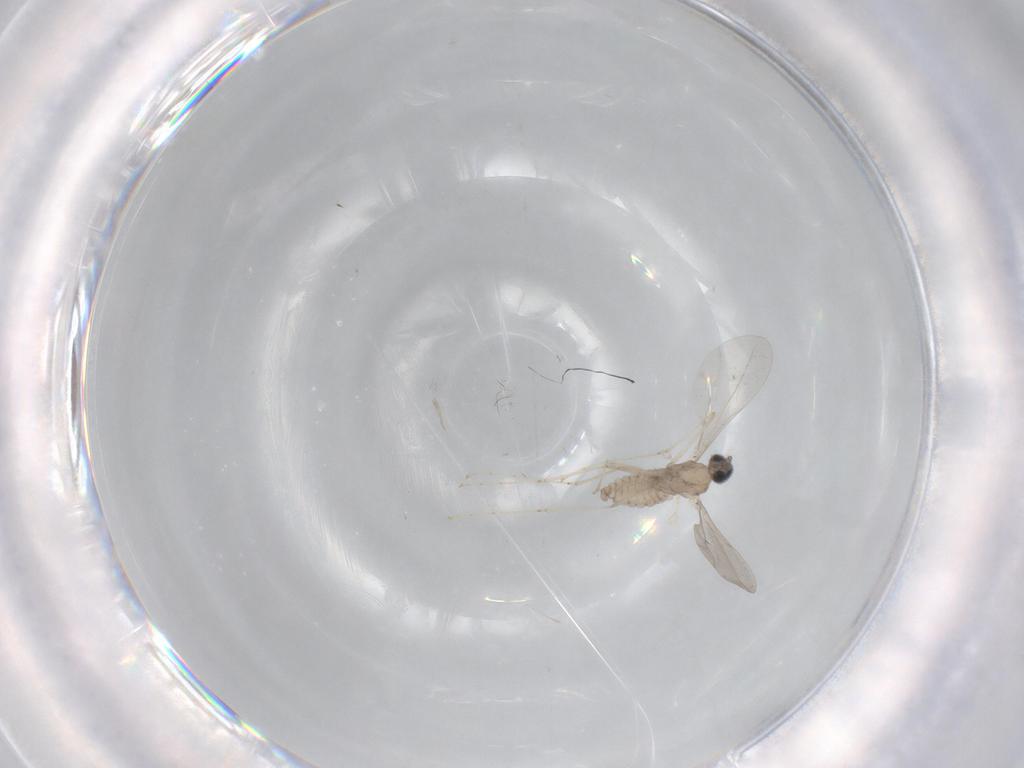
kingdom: Animalia
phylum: Arthropoda
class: Insecta
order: Diptera
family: Cecidomyiidae
